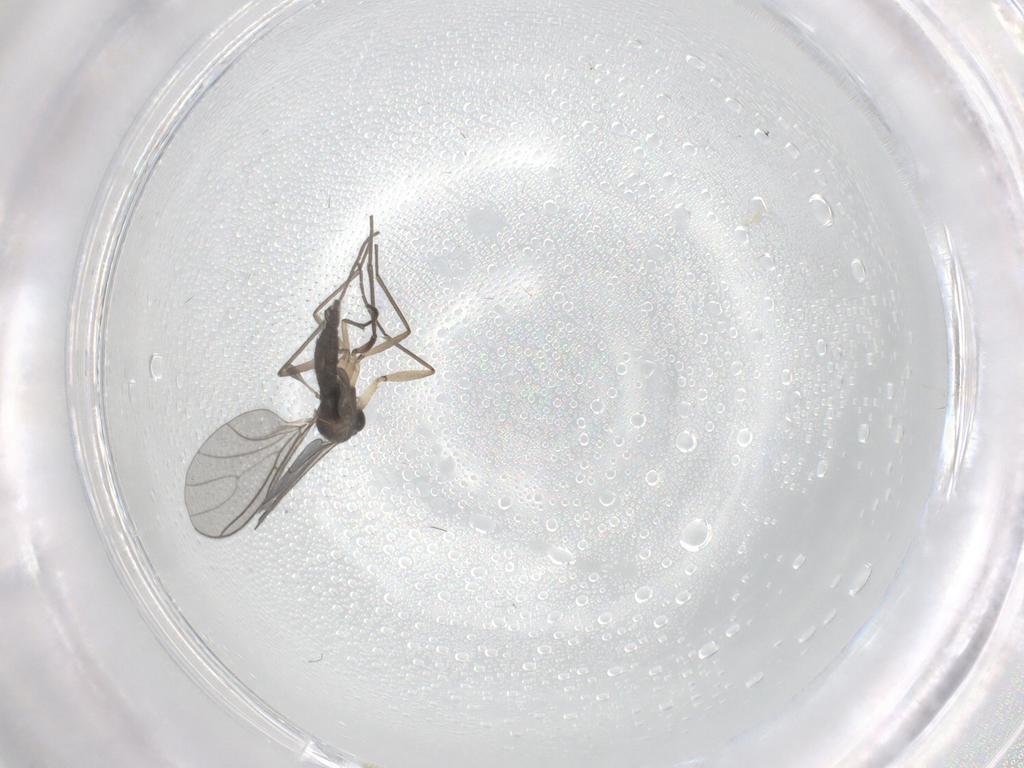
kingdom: Animalia
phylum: Arthropoda
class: Insecta
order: Diptera
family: Sciaridae
